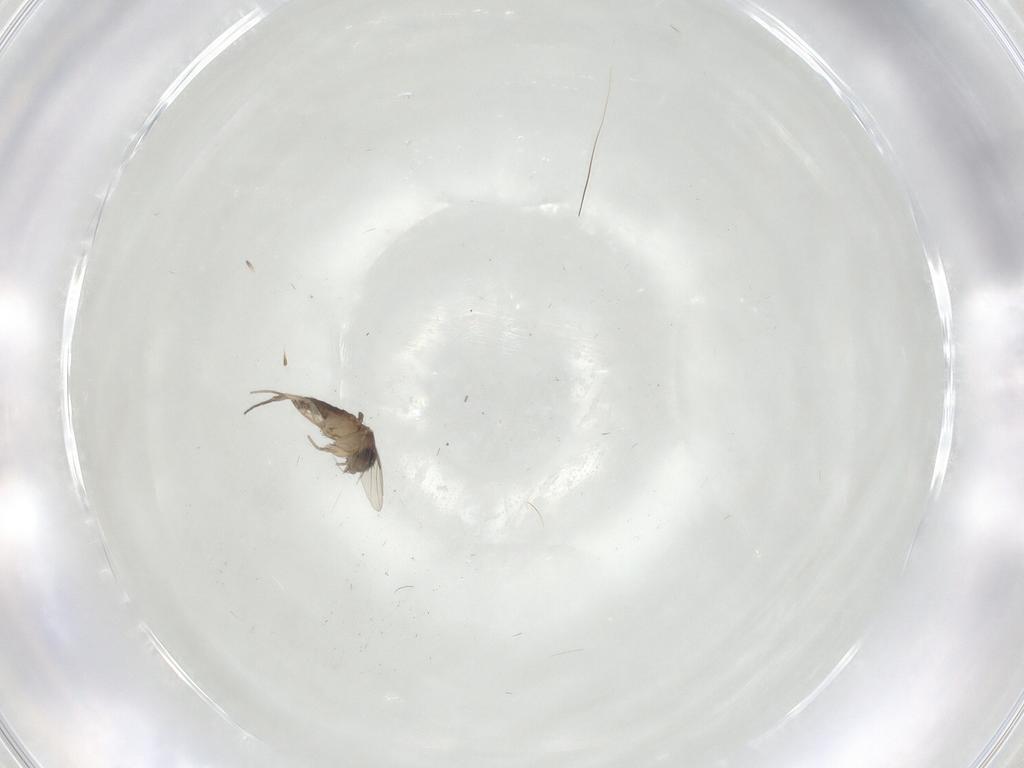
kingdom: Animalia
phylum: Arthropoda
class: Insecta
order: Diptera
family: Phoridae
